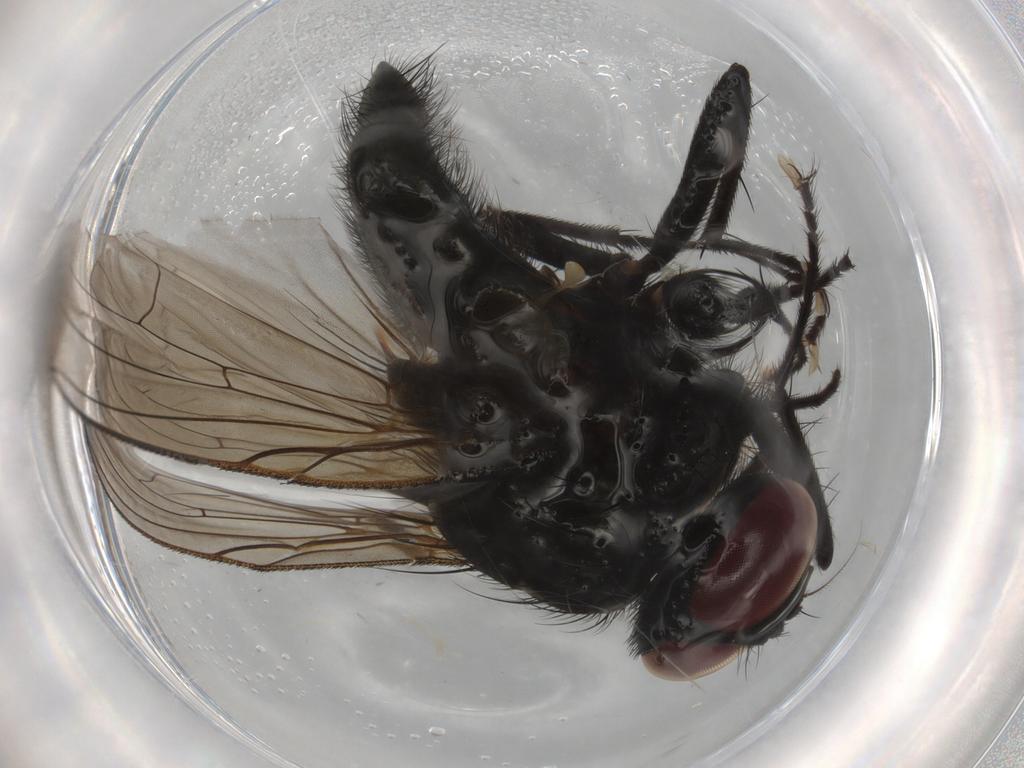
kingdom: Animalia
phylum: Arthropoda
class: Insecta
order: Diptera
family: Muscidae
